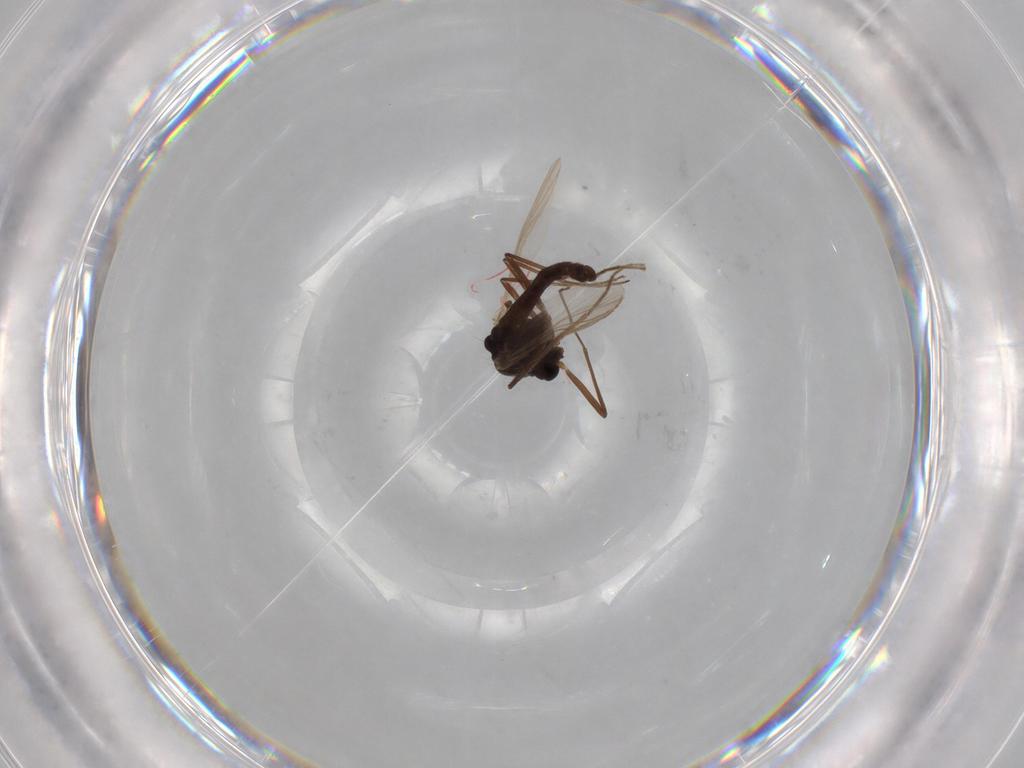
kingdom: Animalia
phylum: Arthropoda
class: Insecta
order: Diptera
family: Chironomidae
